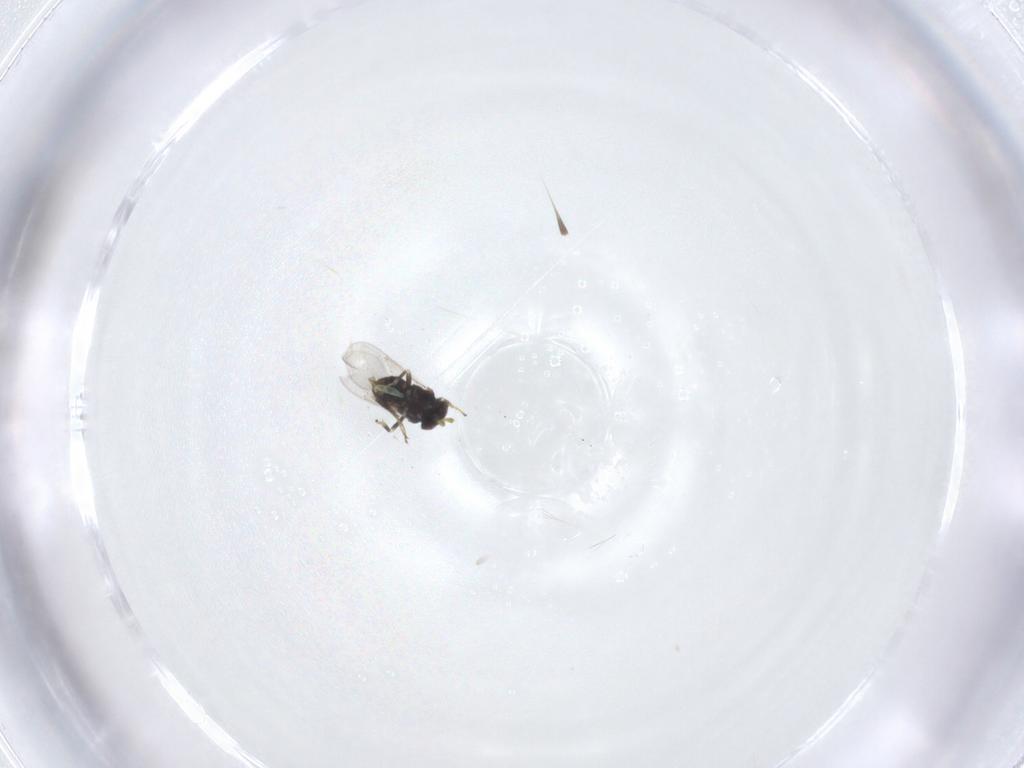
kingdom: Animalia
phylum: Arthropoda
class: Insecta
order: Hymenoptera
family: Aphelinidae
